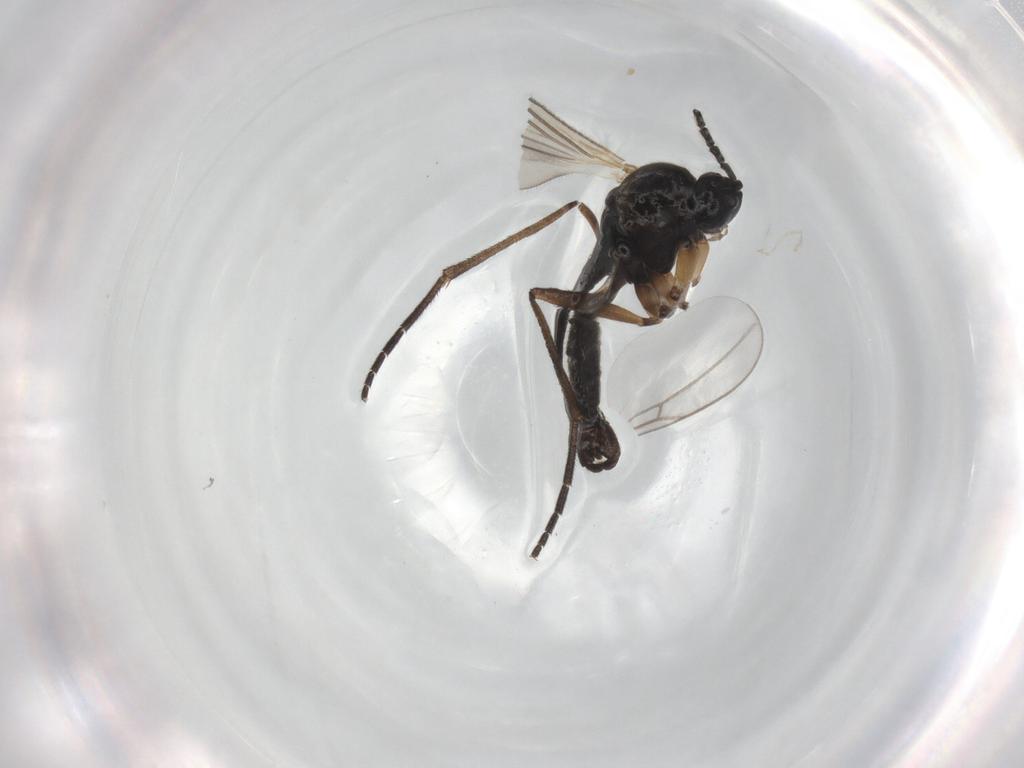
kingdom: Animalia
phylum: Arthropoda
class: Insecta
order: Diptera
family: Sciaridae
